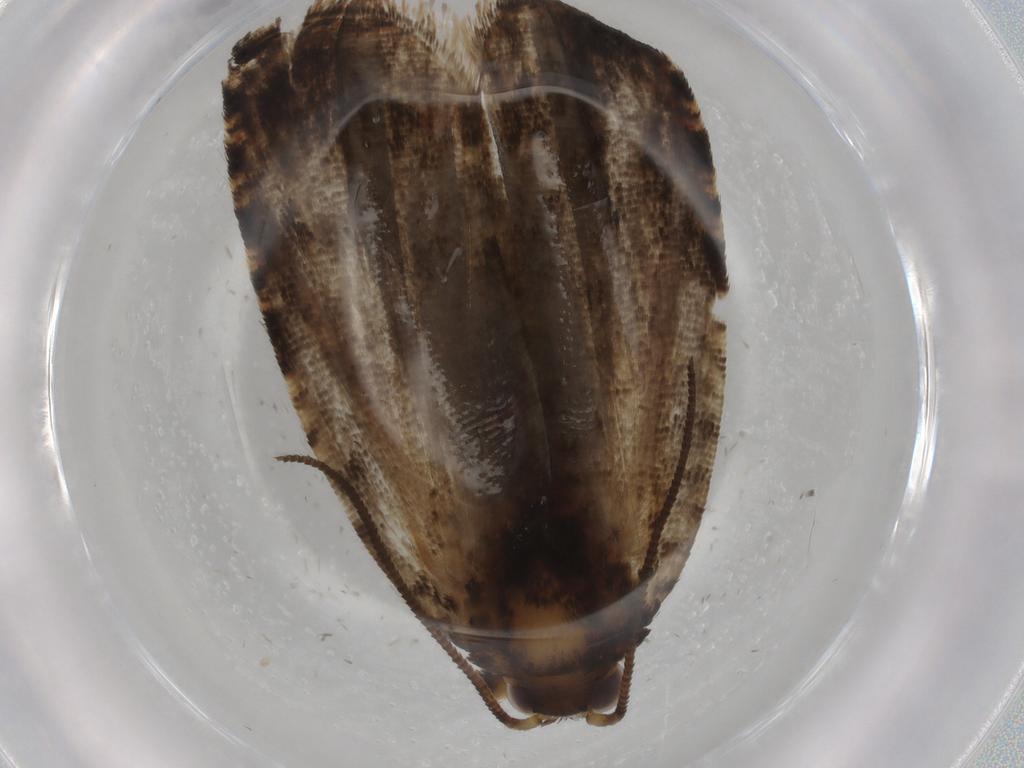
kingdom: Animalia
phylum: Arthropoda
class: Insecta
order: Lepidoptera
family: Tortricidae
